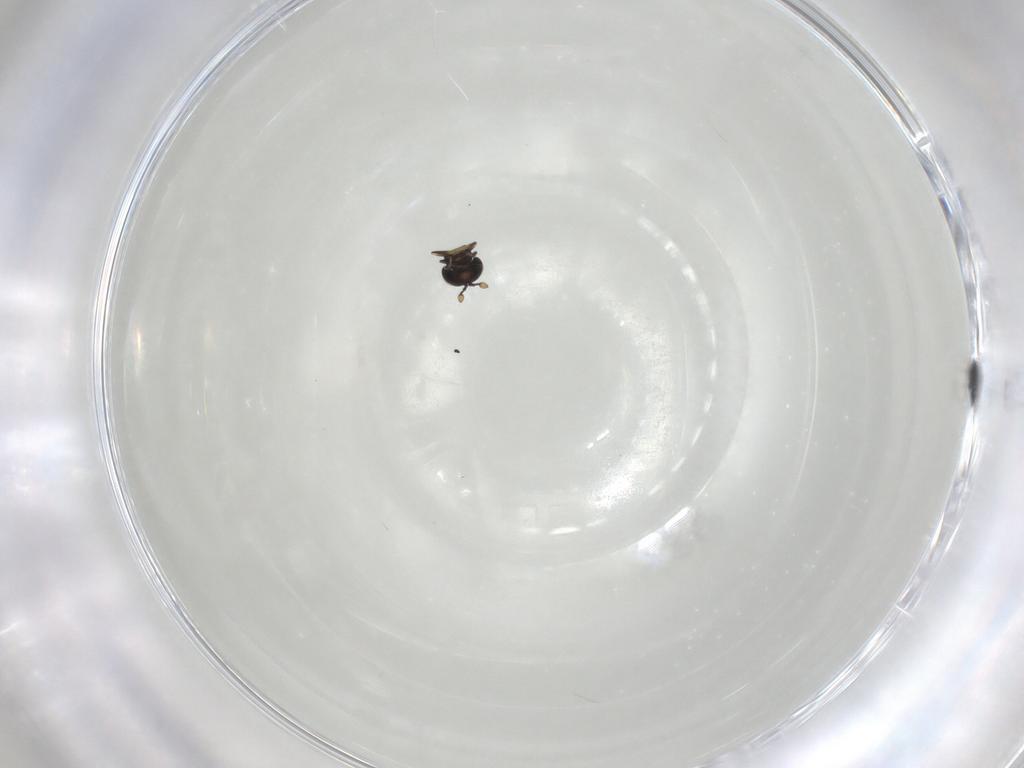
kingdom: Animalia
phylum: Arthropoda
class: Insecta
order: Hymenoptera
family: Scelionidae
